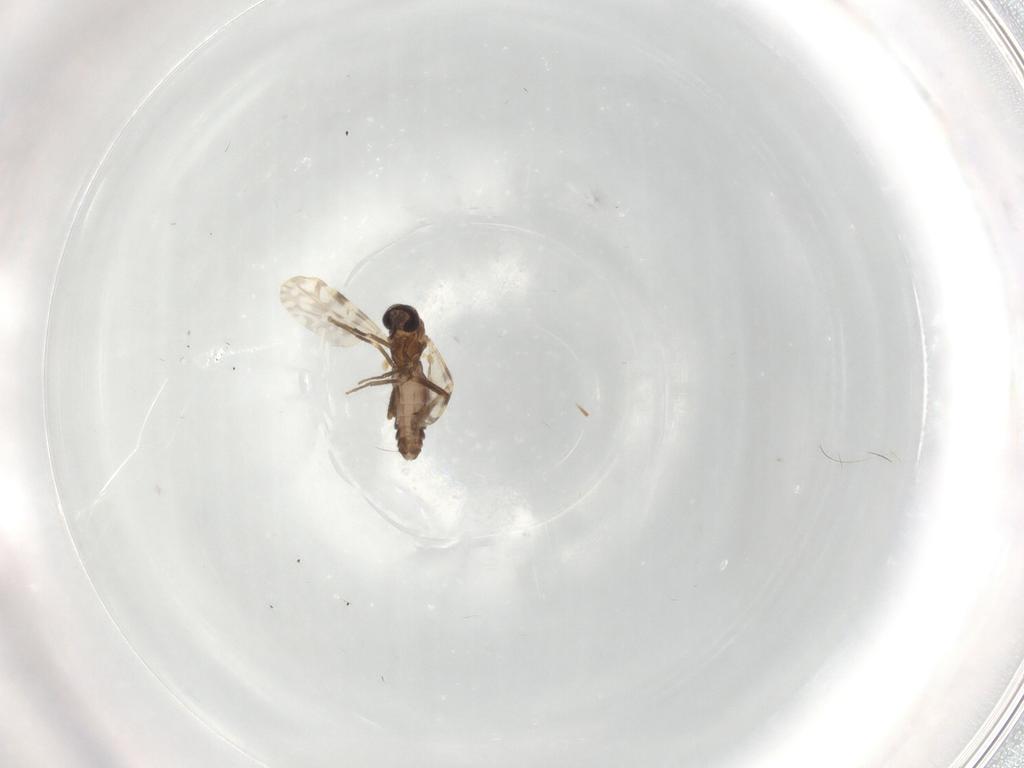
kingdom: Animalia
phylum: Arthropoda
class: Insecta
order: Diptera
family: Ceratopogonidae
